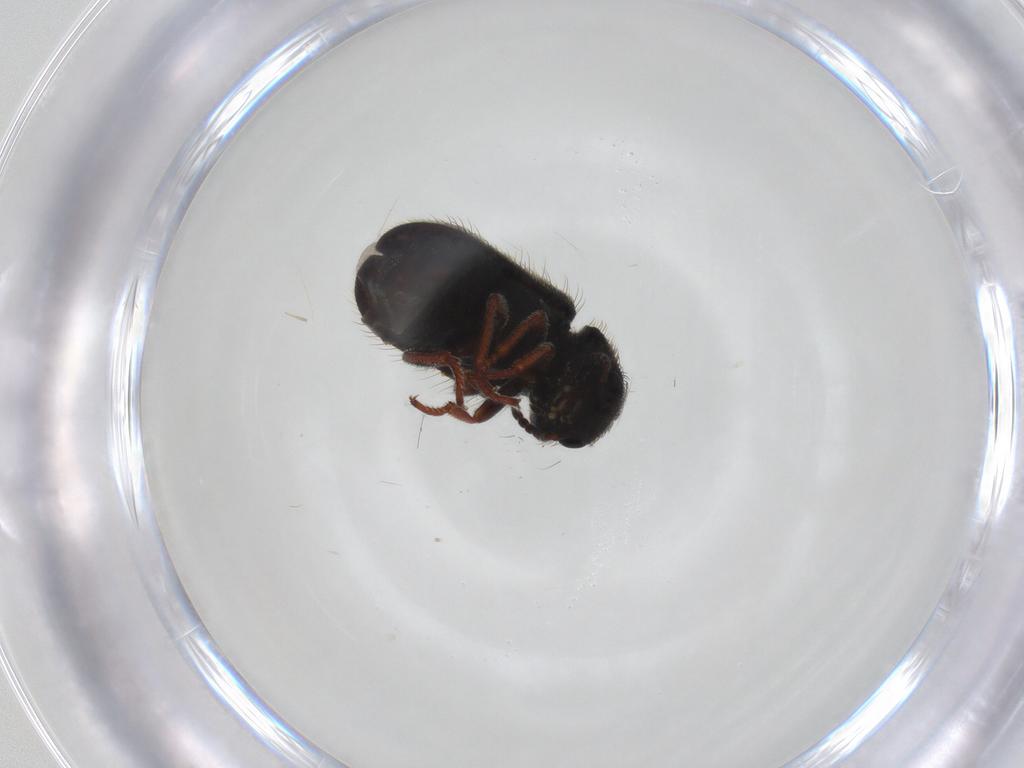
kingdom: Animalia
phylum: Arthropoda
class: Insecta
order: Coleoptera
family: Melyridae
